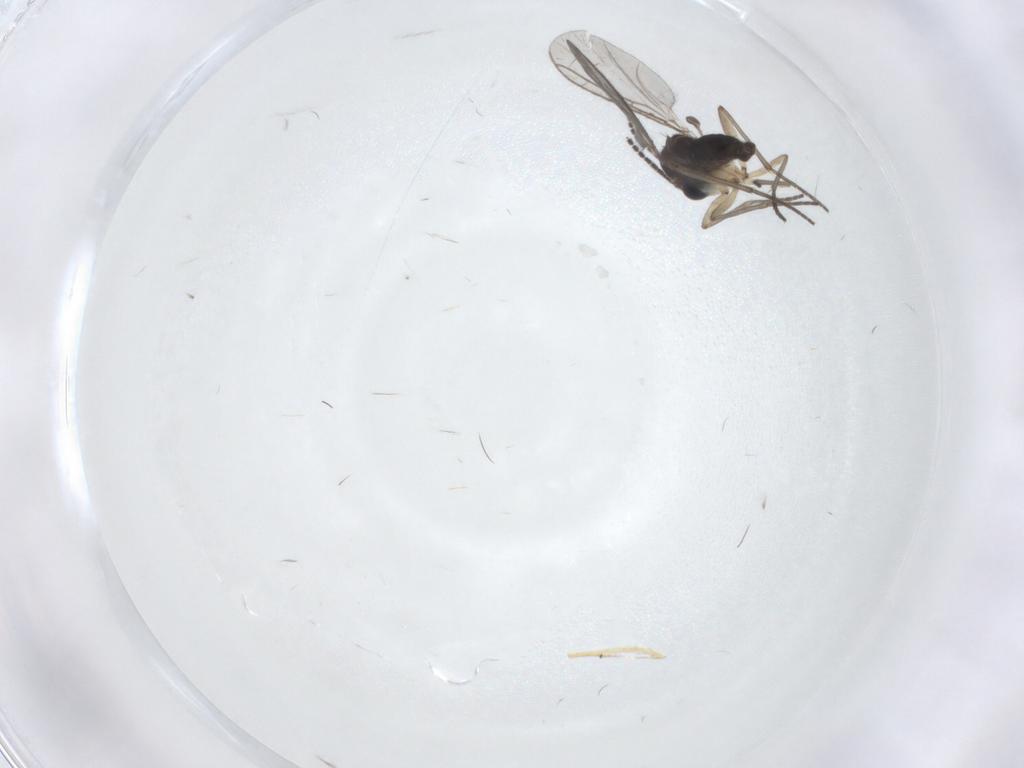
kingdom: Animalia
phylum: Arthropoda
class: Insecta
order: Diptera
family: Sciaridae
